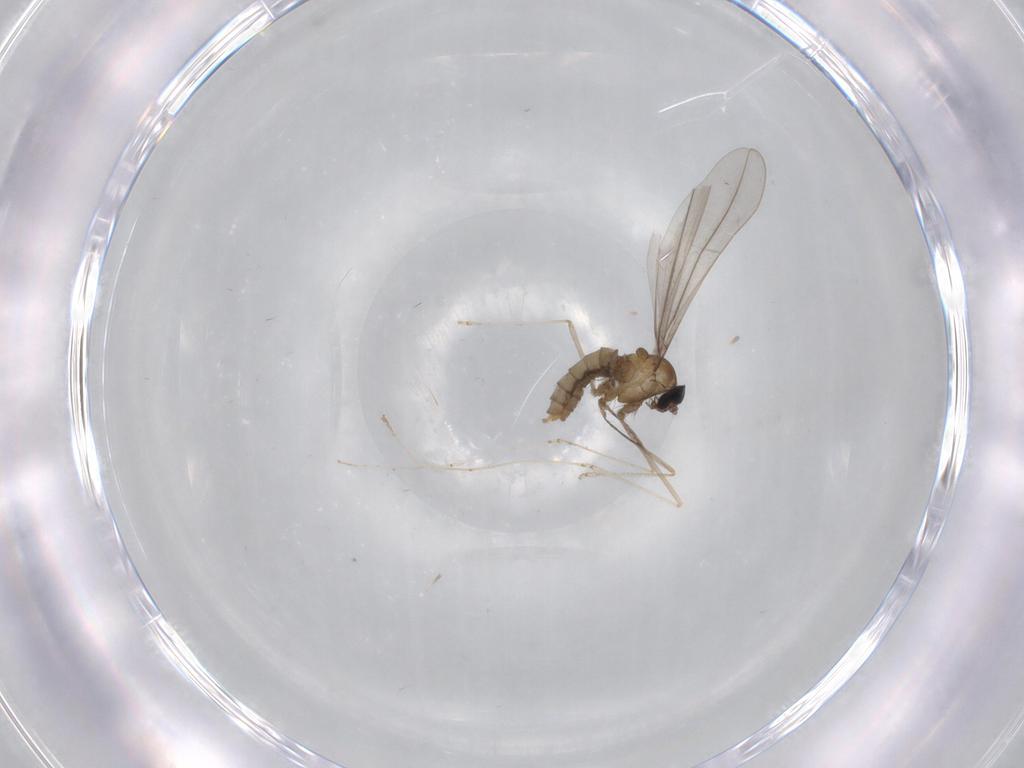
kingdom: Animalia
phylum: Arthropoda
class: Insecta
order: Diptera
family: Cecidomyiidae
